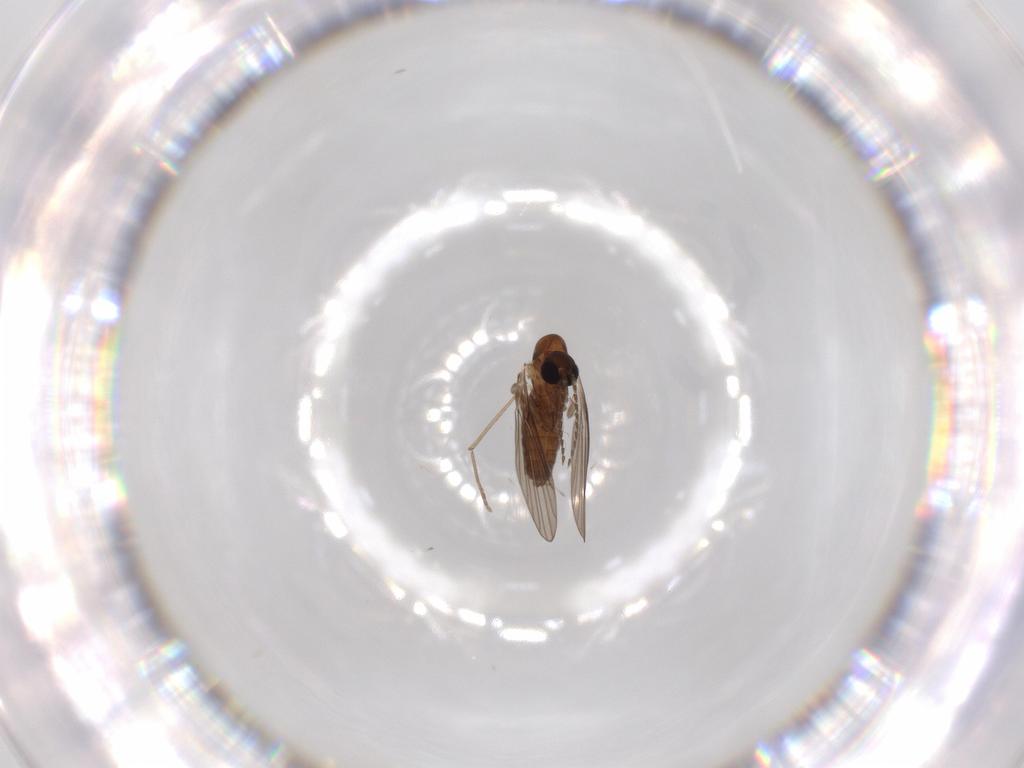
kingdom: Animalia
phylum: Arthropoda
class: Insecta
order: Diptera
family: Psychodidae
